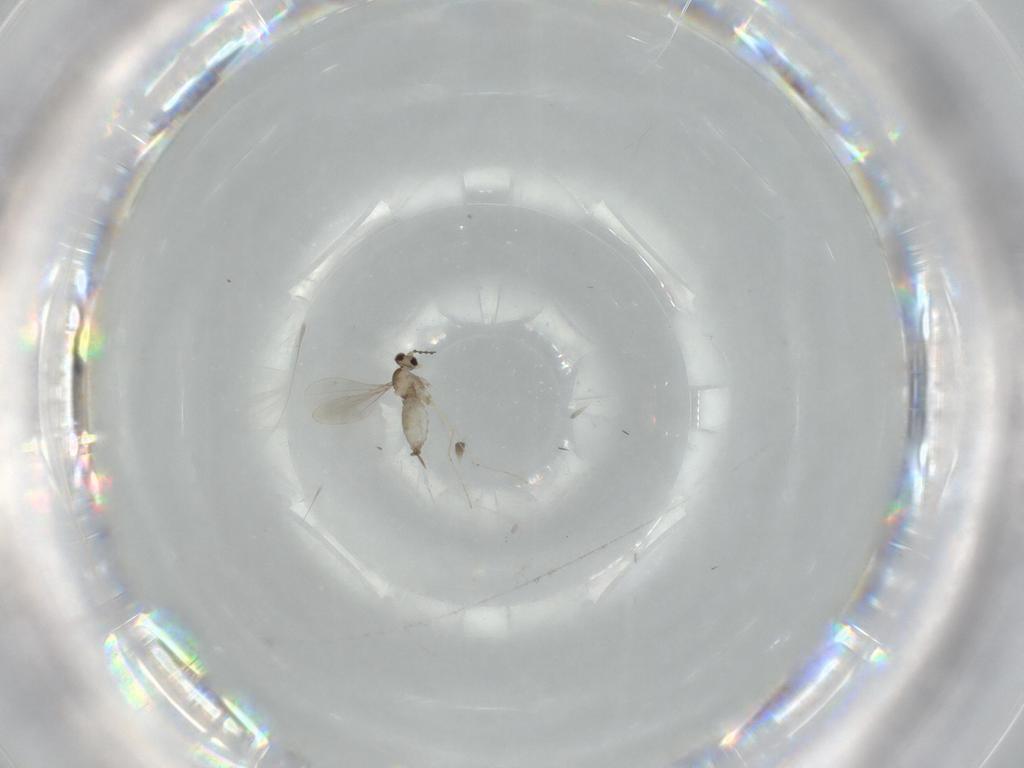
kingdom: Animalia
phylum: Arthropoda
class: Insecta
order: Diptera
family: Cecidomyiidae
